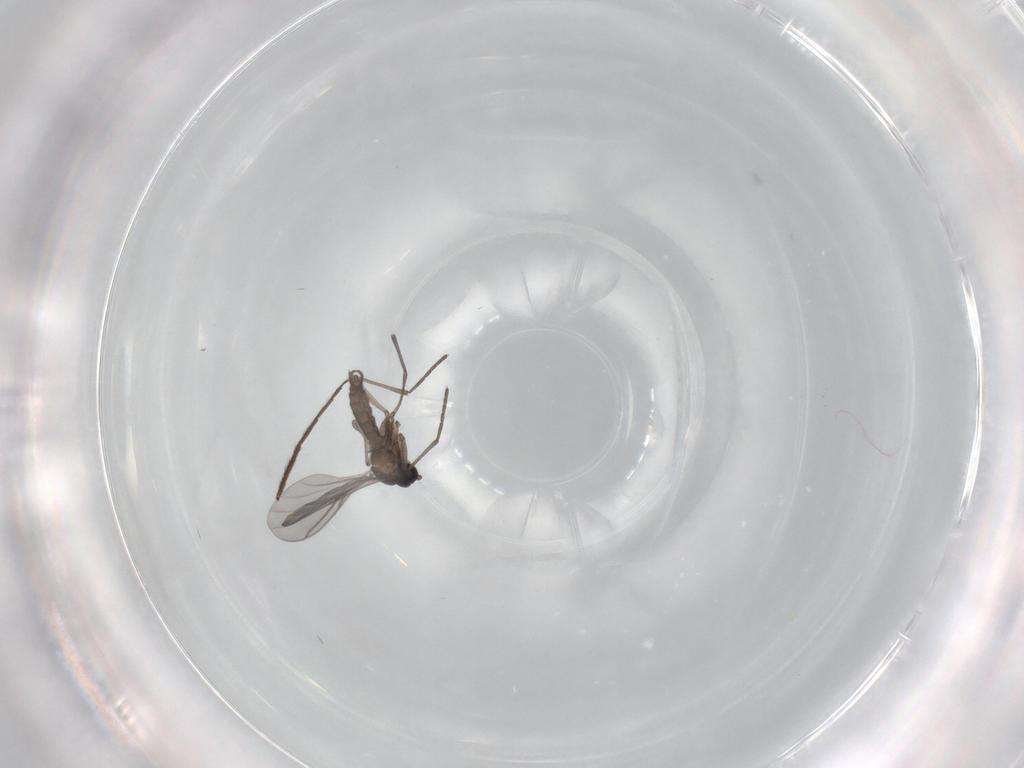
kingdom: Animalia
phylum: Arthropoda
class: Insecta
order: Diptera
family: Sciaridae
